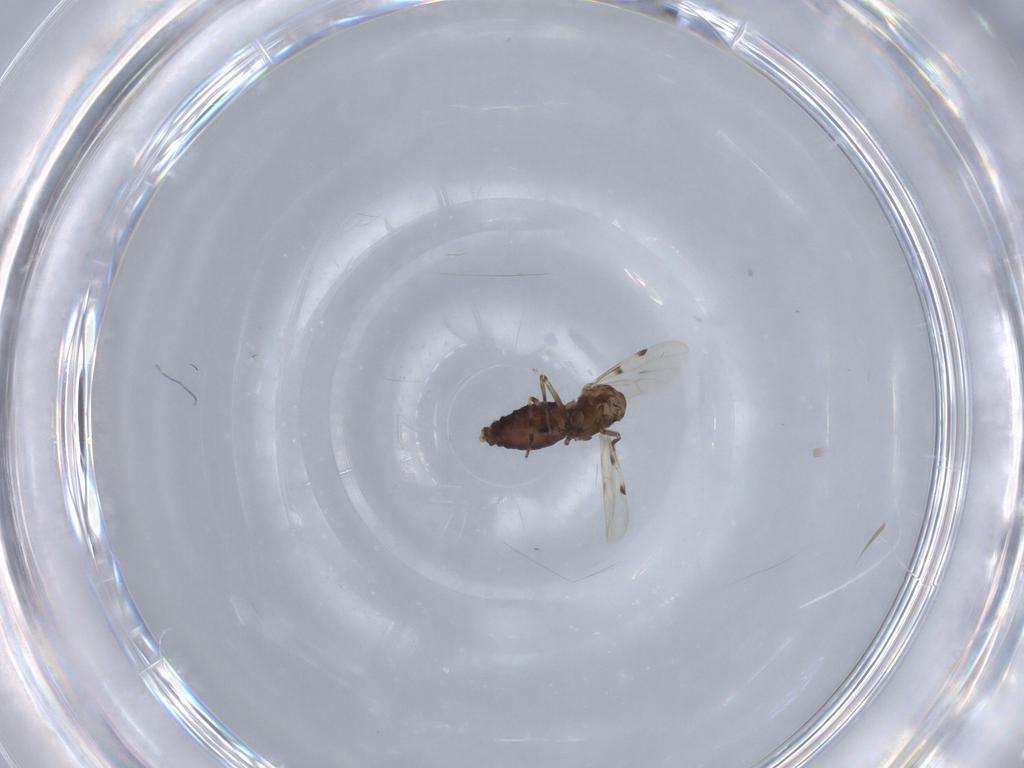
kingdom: Animalia
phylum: Arthropoda
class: Insecta
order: Diptera
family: Ceratopogonidae
